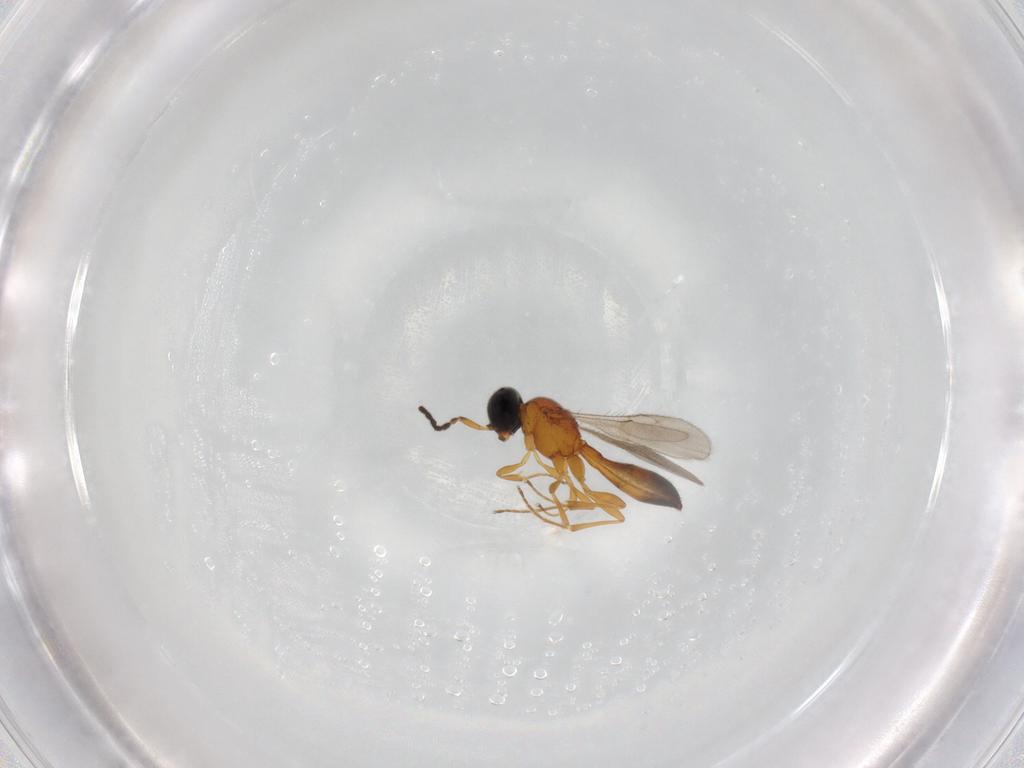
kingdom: Animalia
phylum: Arthropoda
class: Insecta
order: Hymenoptera
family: Scelionidae
